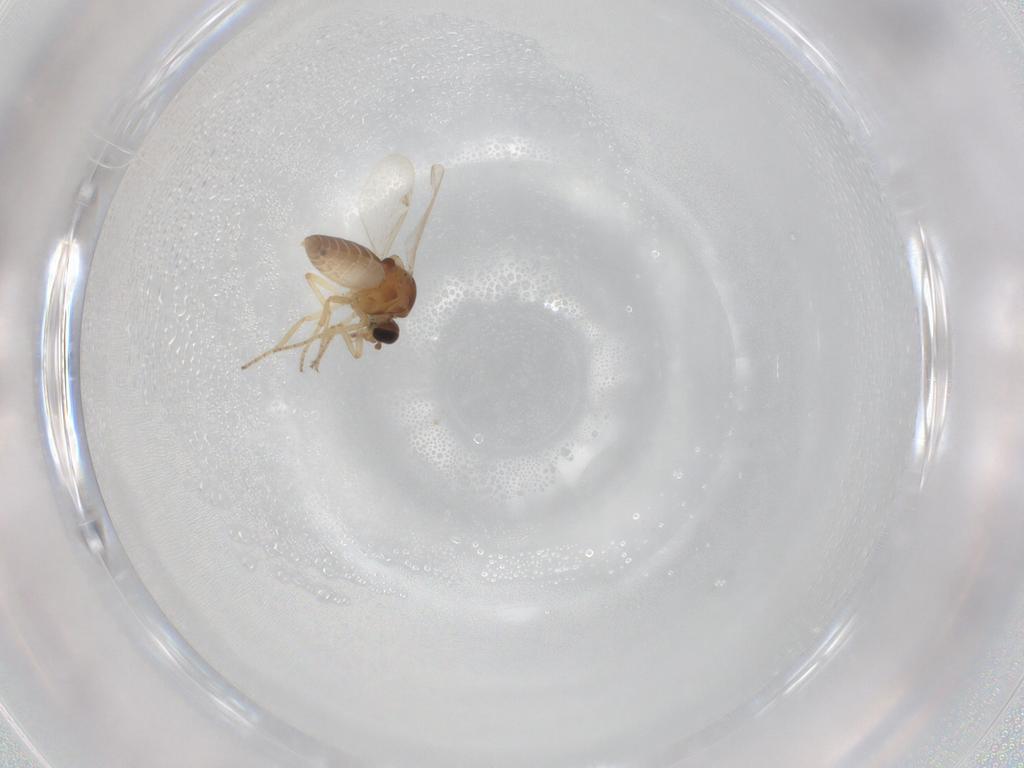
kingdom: Animalia
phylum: Arthropoda
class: Insecta
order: Diptera
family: Ceratopogonidae
